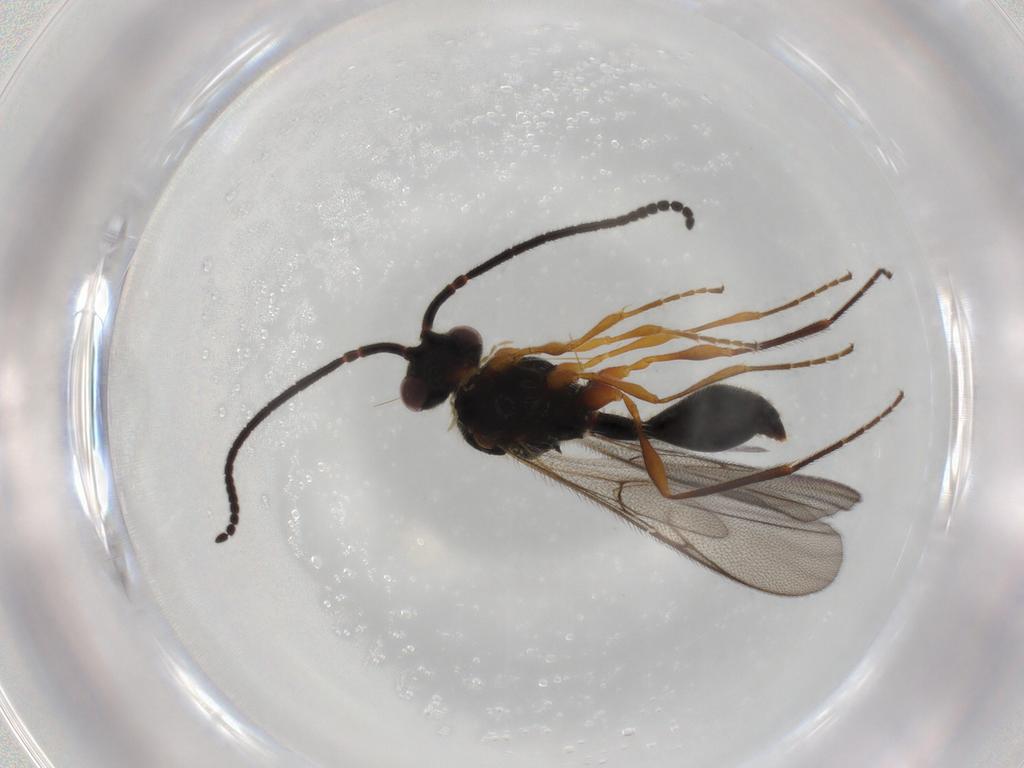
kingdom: Animalia
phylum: Arthropoda
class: Insecta
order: Hymenoptera
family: Diapriidae
